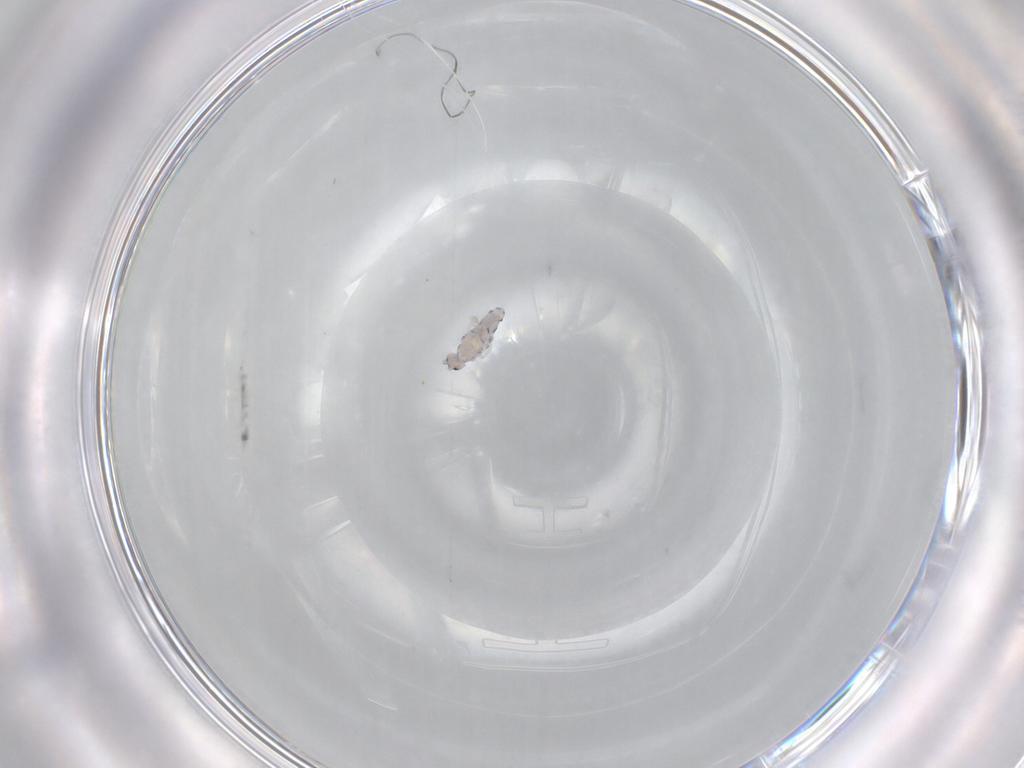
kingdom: Animalia
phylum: Arthropoda
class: Collembola
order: Entomobryomorpha
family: Entomobryidae
